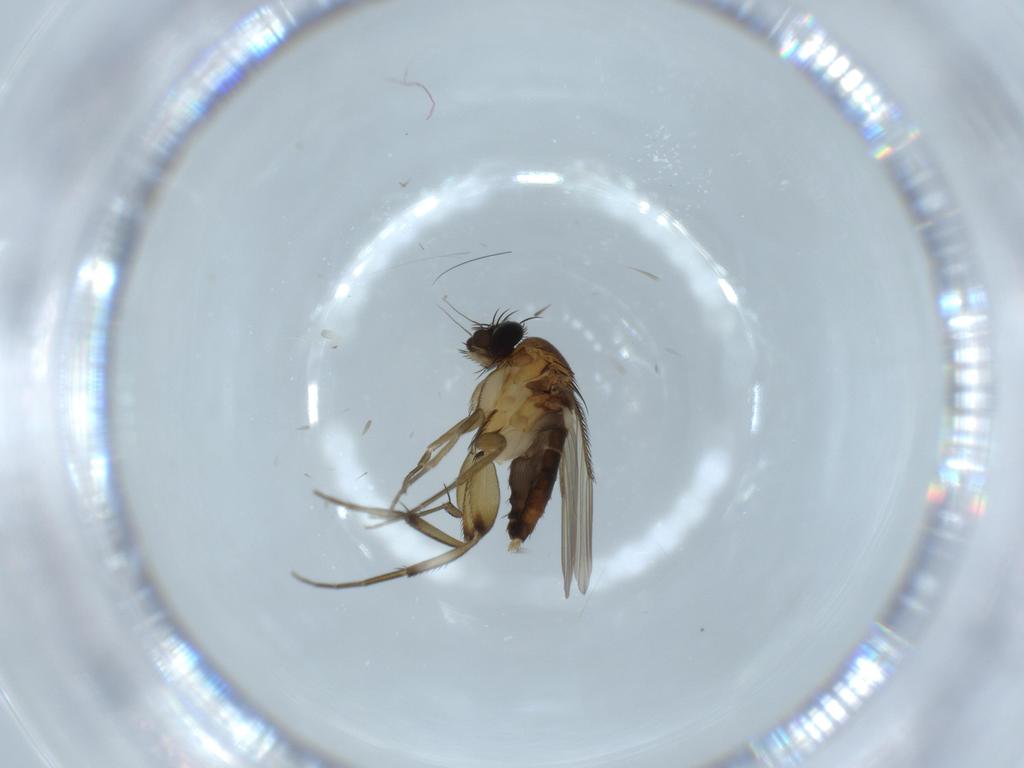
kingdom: Animalia
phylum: Arthropoda
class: Insecta
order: Diptera
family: Phoridae
